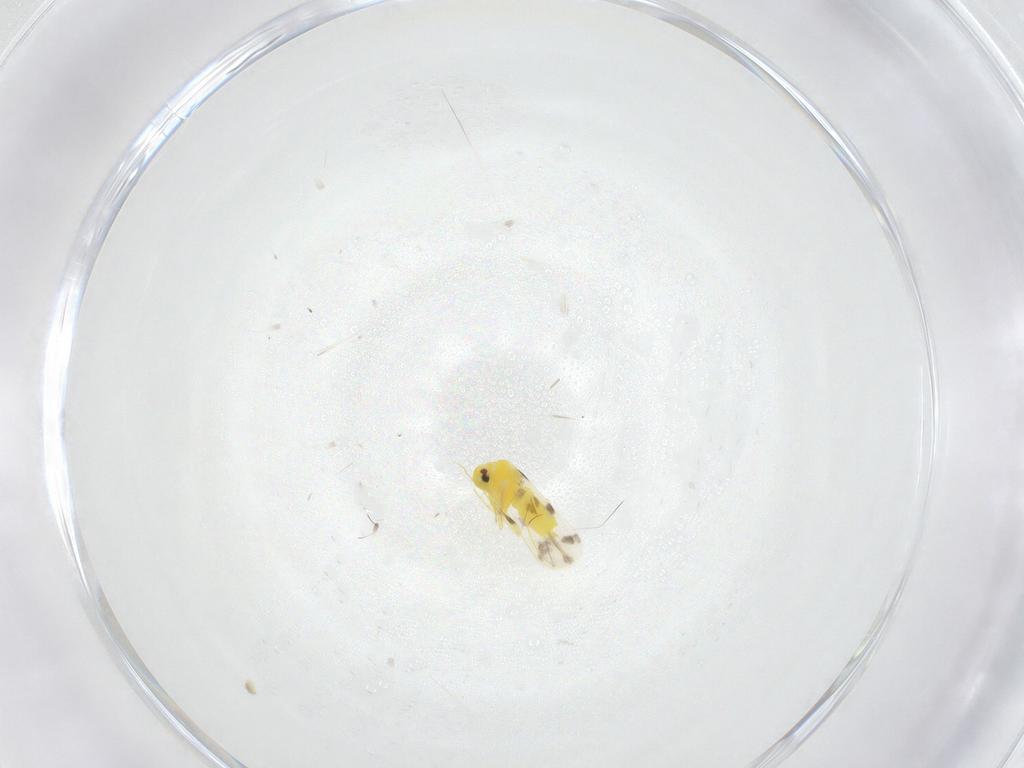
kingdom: Animalia
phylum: Arthropoda
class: Insecta
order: Hemiptera
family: Aleyrodidae
